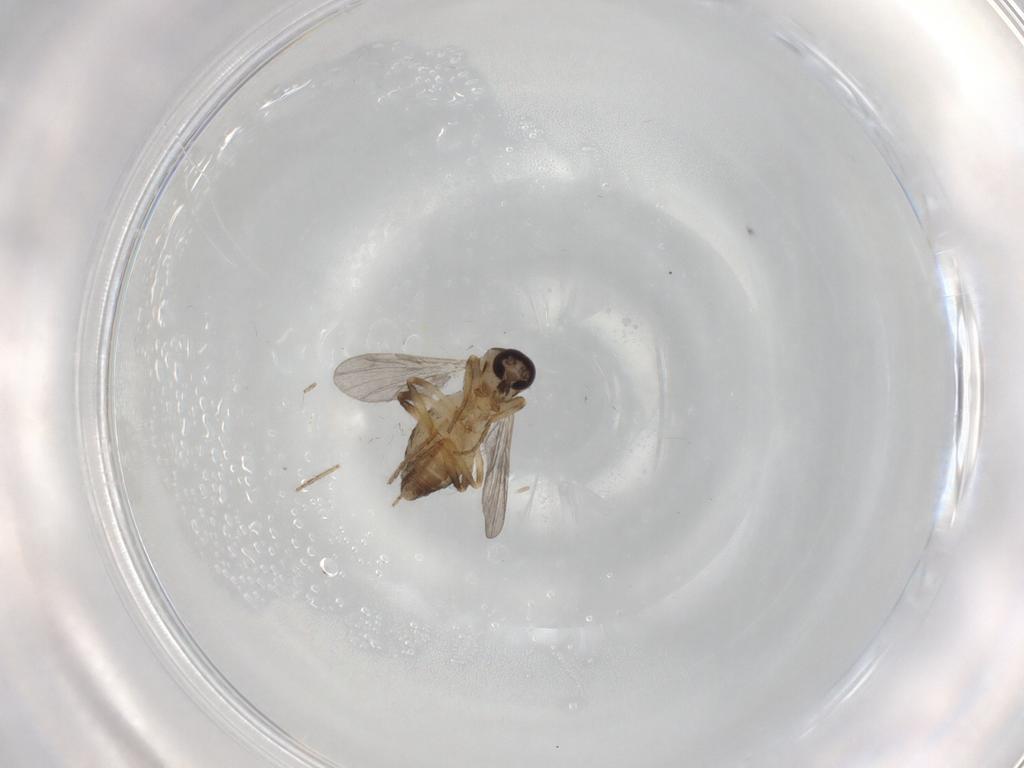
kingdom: Animalia
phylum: Arthropoda
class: Insecta
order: Diptera
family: Ceratopogonidae
